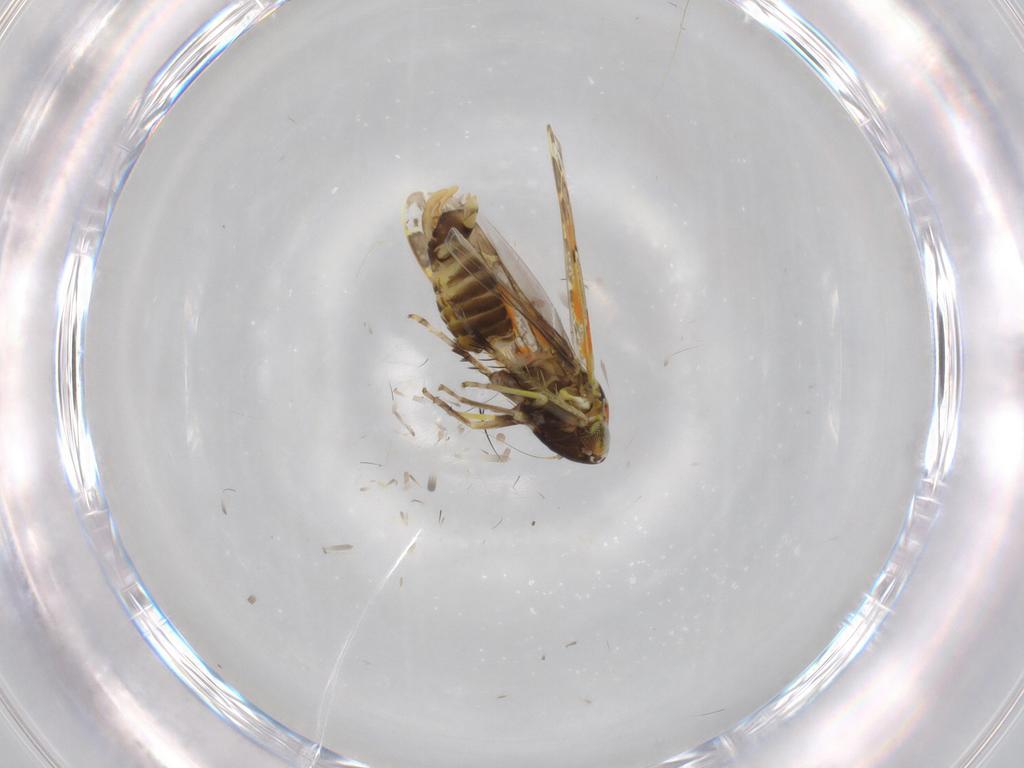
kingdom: Animalia
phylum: Arthropoda
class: Insecta
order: Hemiptera
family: Cicadellidae
